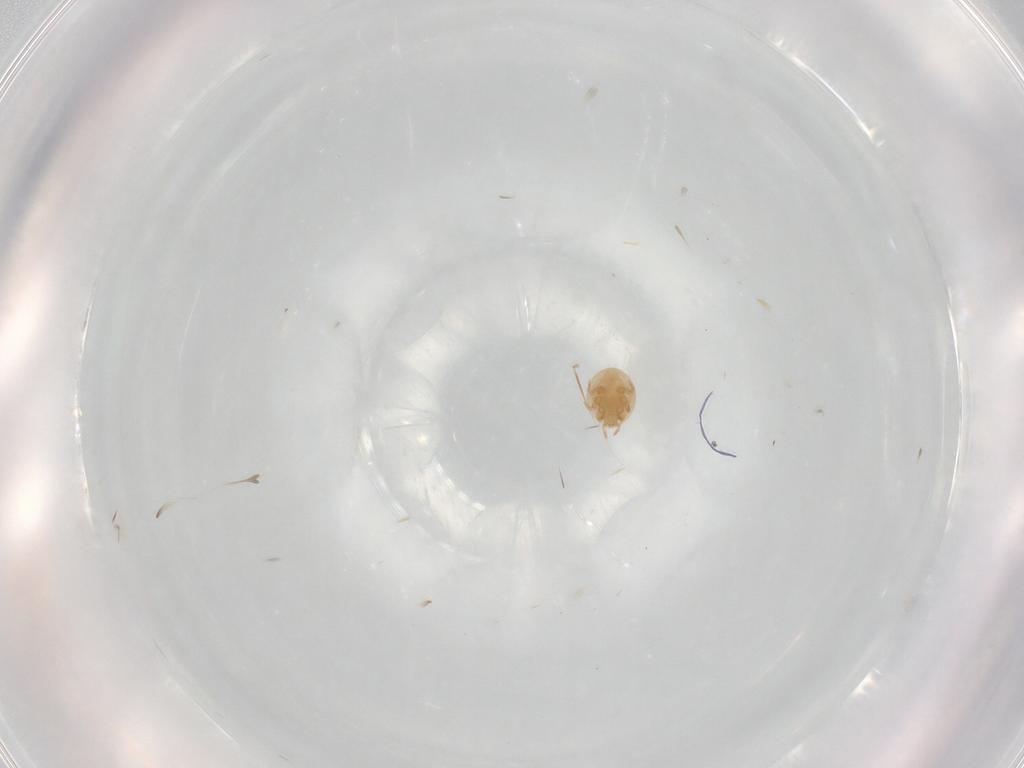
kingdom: Animalia
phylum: Arthropoda
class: Arachnida
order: Mesostigmata
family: Trematuridae
